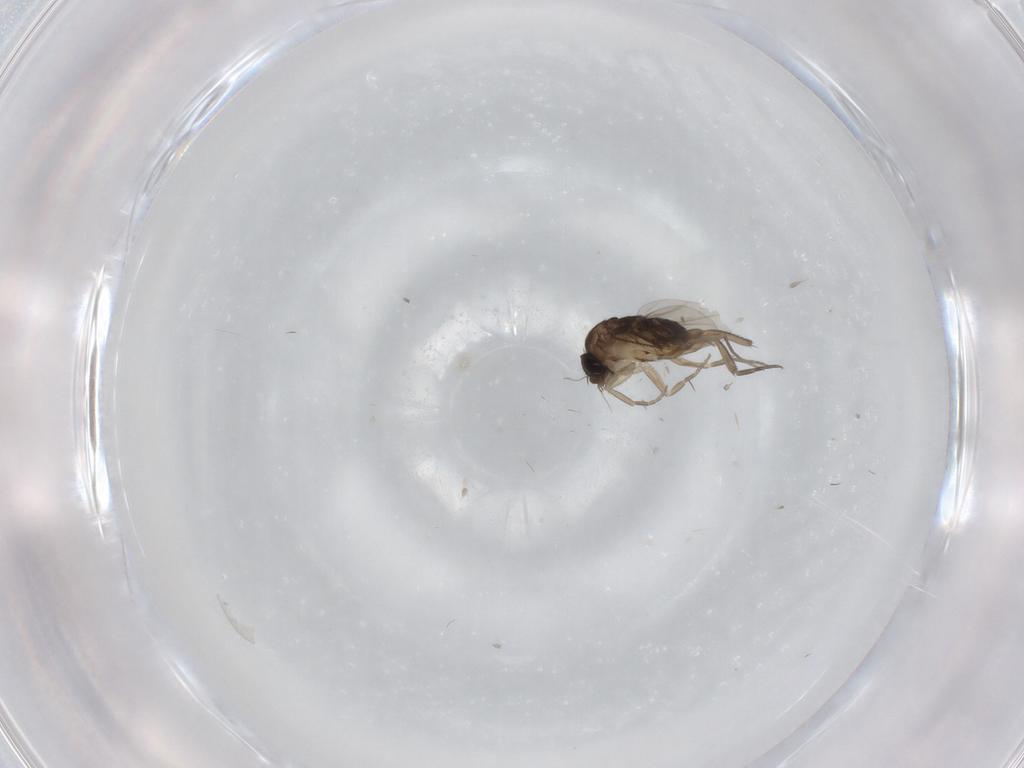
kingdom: Animalia
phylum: Arthropoda
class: Insecta
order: Diptera
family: Phoridae
